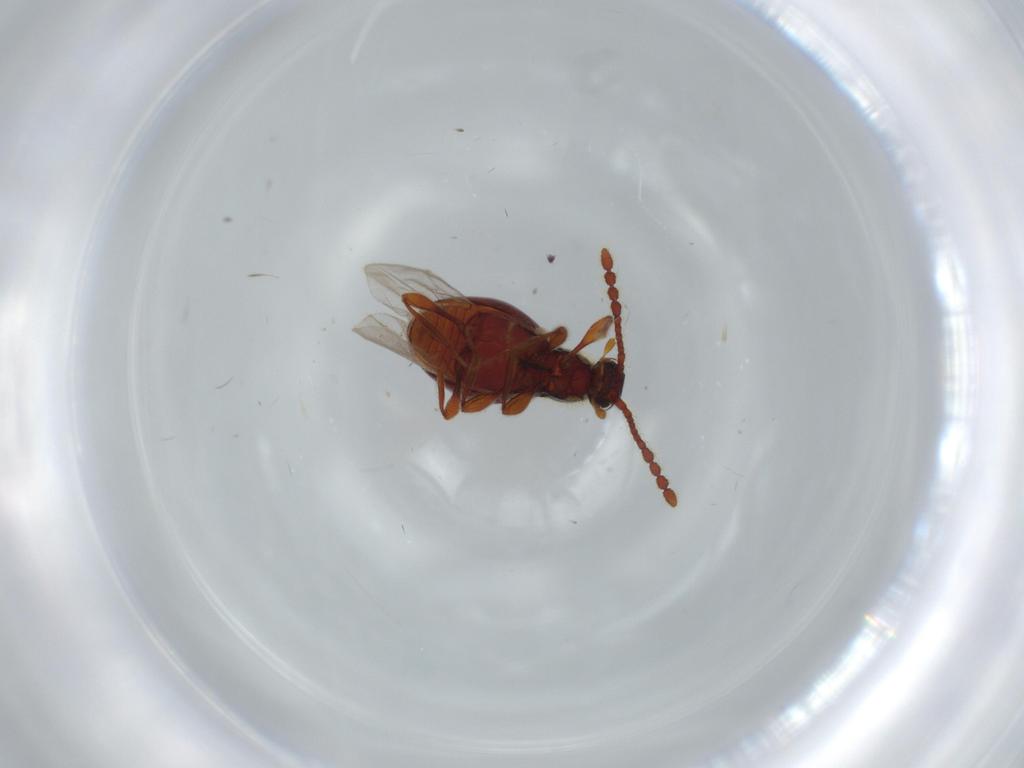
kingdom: Animalia
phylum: Arthropoda
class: Insecta
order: Coleoptera
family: Staphylinidae
